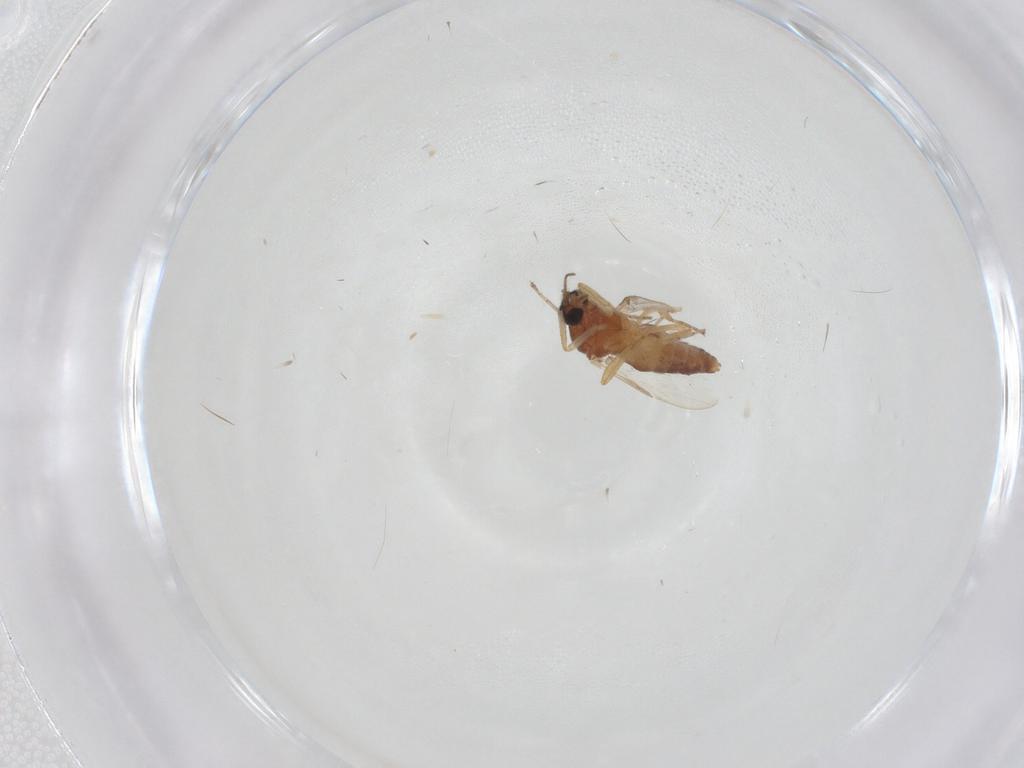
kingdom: Animalia
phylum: Arthropoda
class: Insecta
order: Diptera
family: Ceratopogonidae
